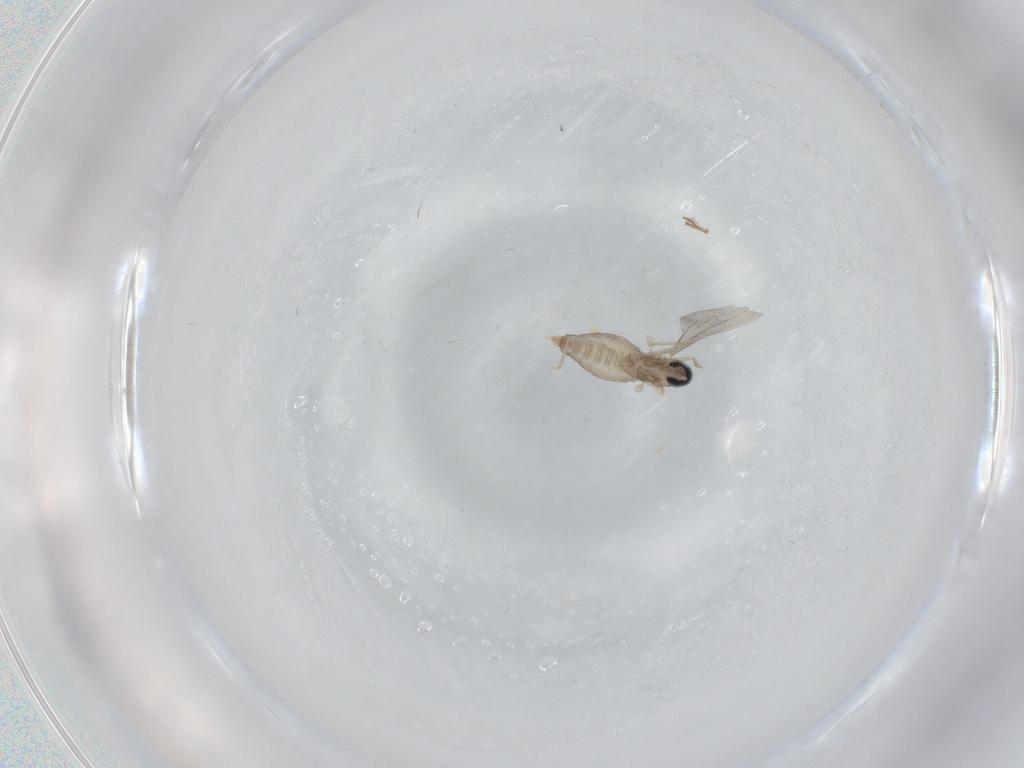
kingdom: Animalia
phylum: Arthropoda
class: Insecta
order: Diptera
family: Cecidomyiidae
